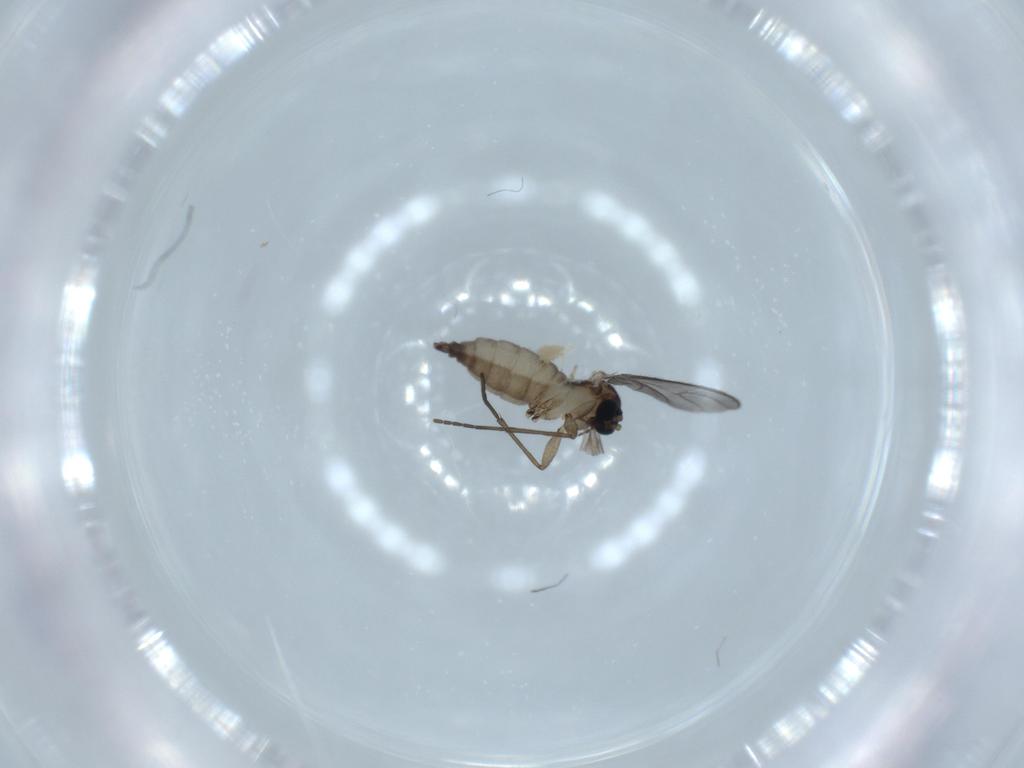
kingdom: Animalia
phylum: Arthropoda
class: Insecta
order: Diptera
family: Sciaridae
